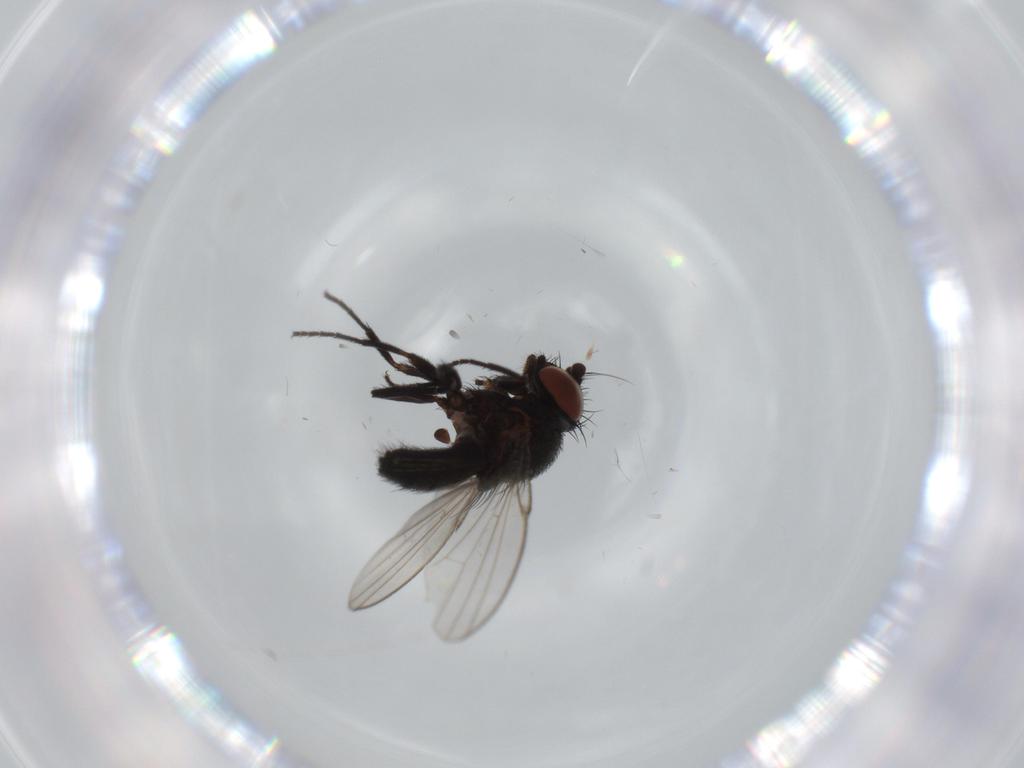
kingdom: Animalia
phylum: Arthropoda
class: Insecta
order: Diptera
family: Milichiidae
